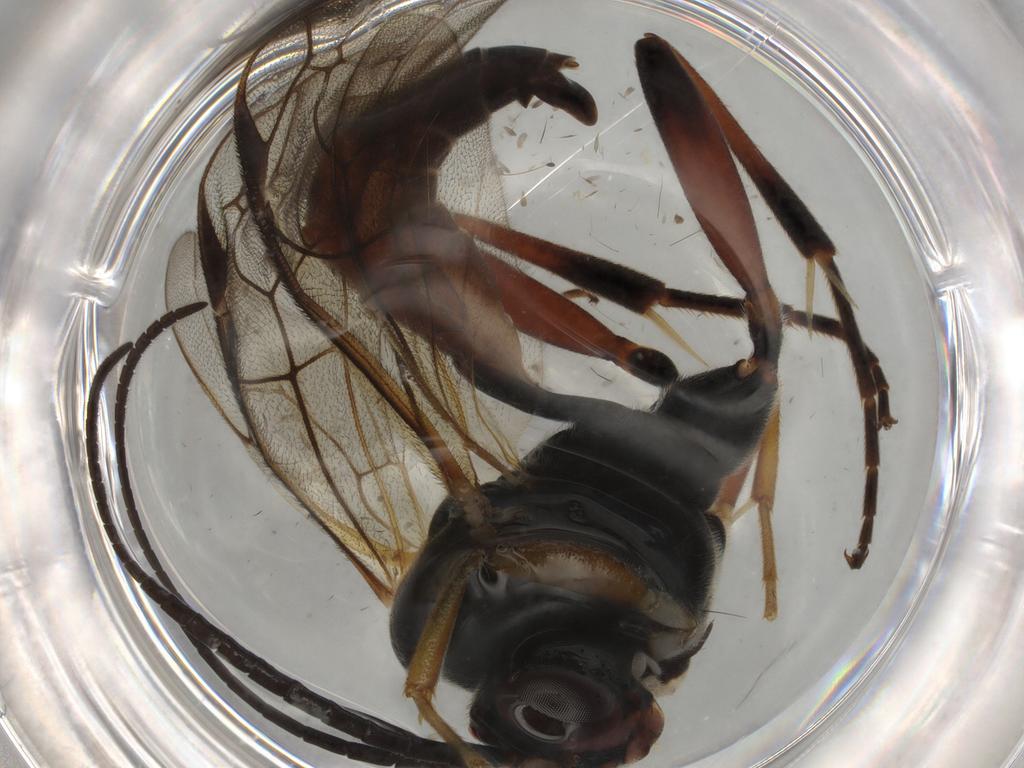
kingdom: Animalia
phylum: Arthropoda
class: Insecta
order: Hymenoptera
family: Ichneumonidae
